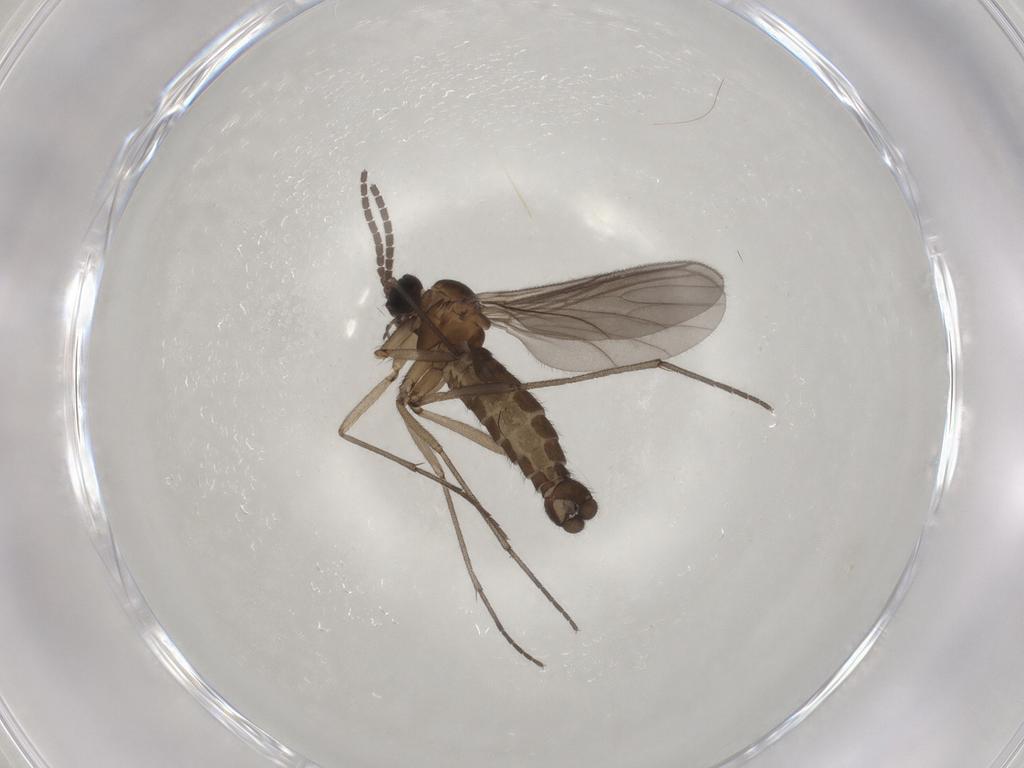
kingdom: Animalia
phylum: Arthropoda
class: Insecta
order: Diptera
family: Sciaridae
